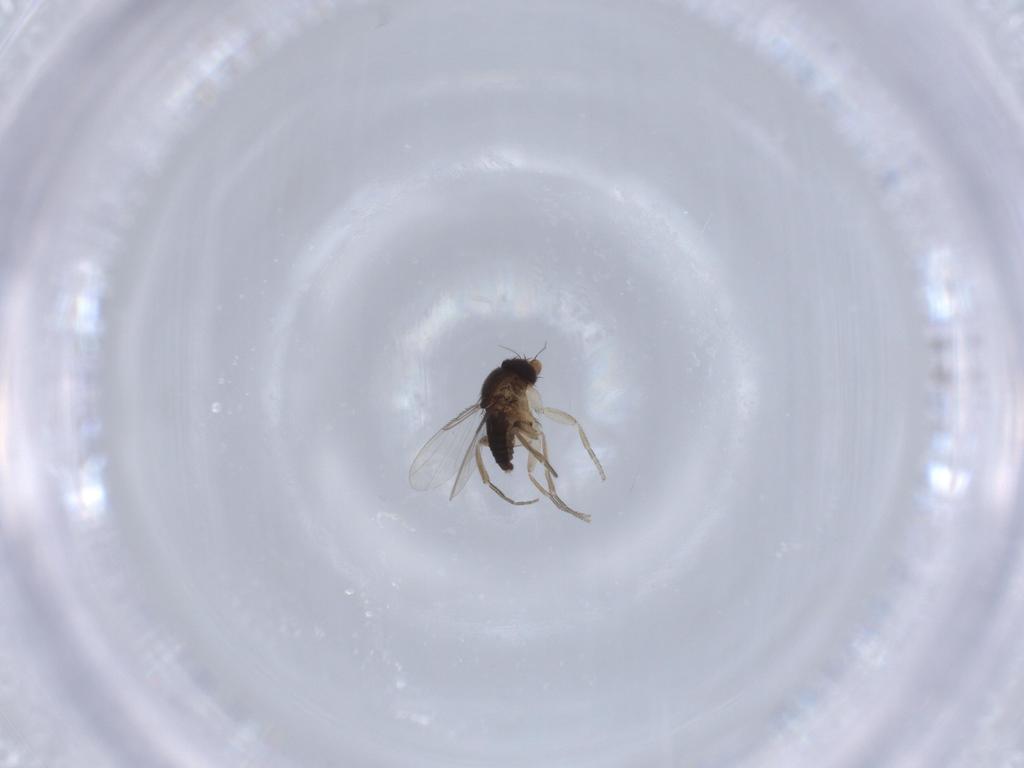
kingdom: Animalia
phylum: Arthropoda
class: Insecta
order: Diptera
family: Phoridae
